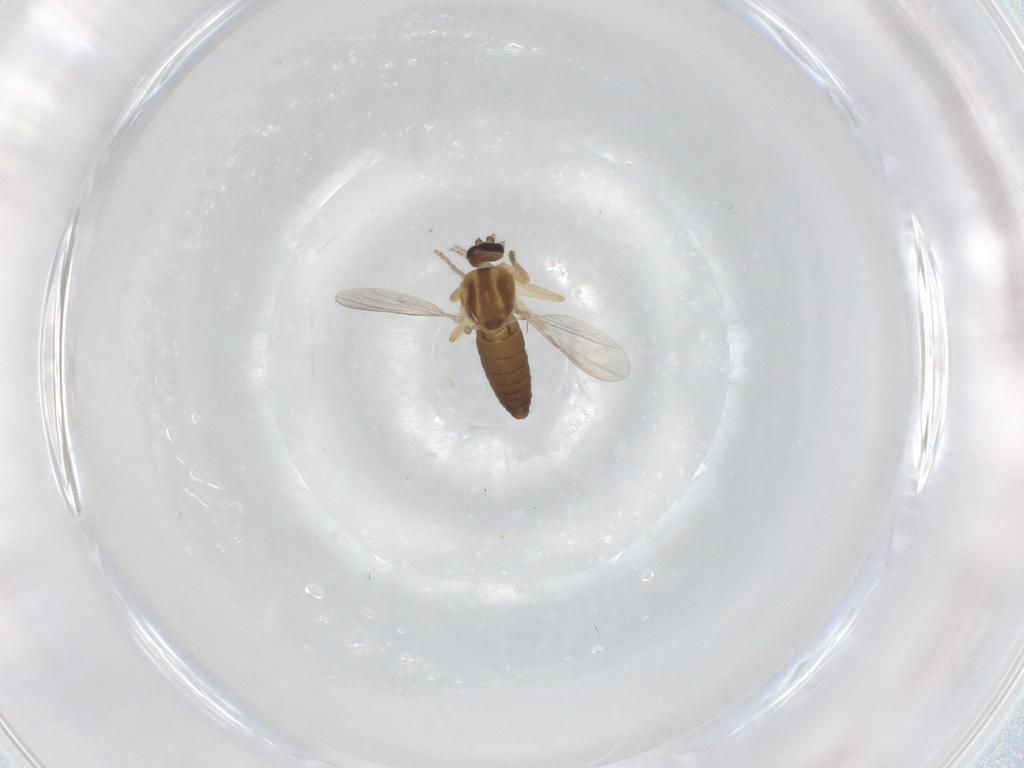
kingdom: Animalia
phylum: Arthropoda
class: Insecta
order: Diptera
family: Ceratopogonidae
